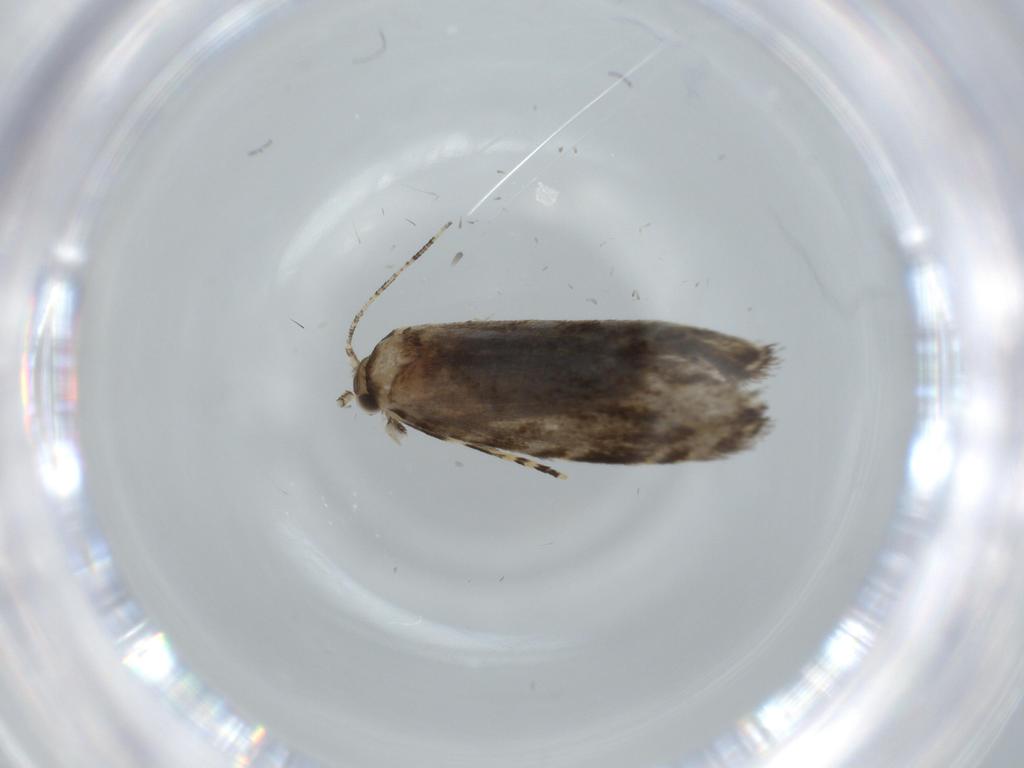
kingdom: Animalia
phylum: Arthropoda
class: Insecta
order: Lepidoptera
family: Tineidae
